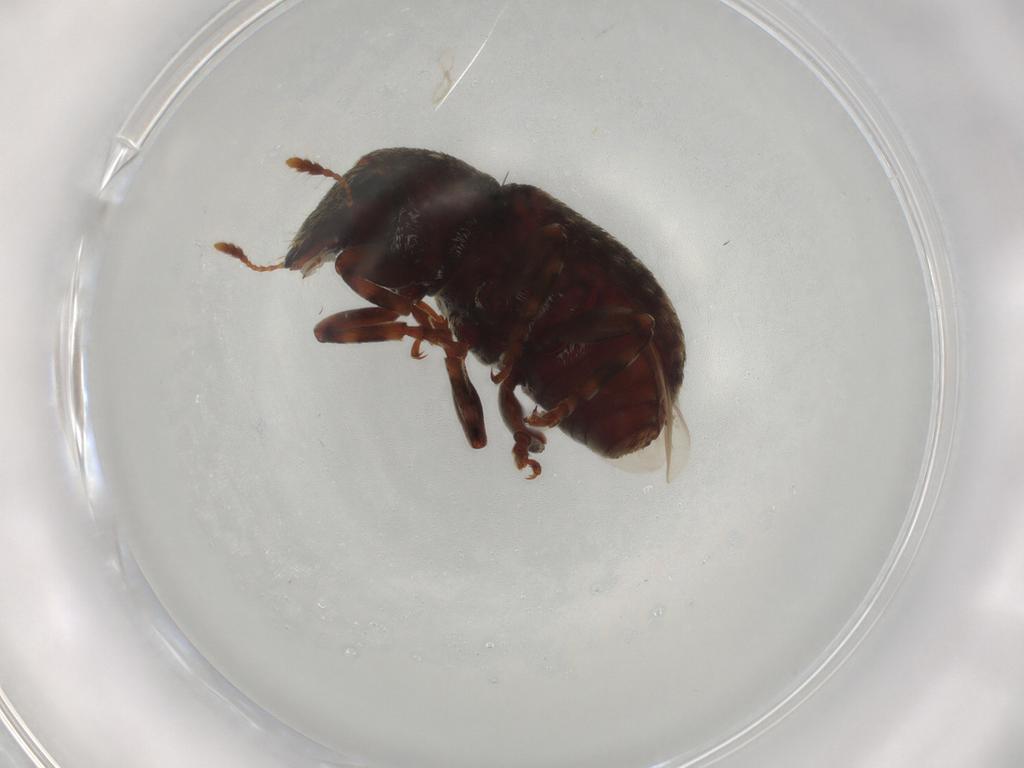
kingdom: Animalia
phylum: Arthropoda
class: Insecta
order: Coleoptera
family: Anthribidae
